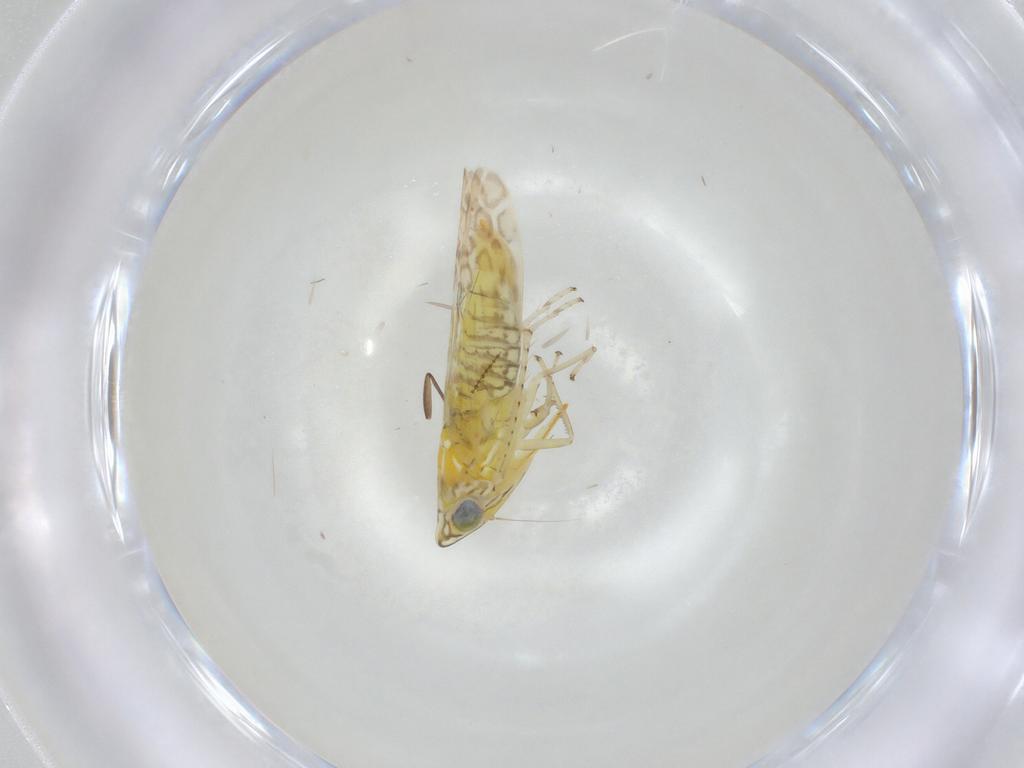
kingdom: Animalia
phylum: Arthropoda
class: Insecta
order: Hemiptera
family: Cicadellidae
